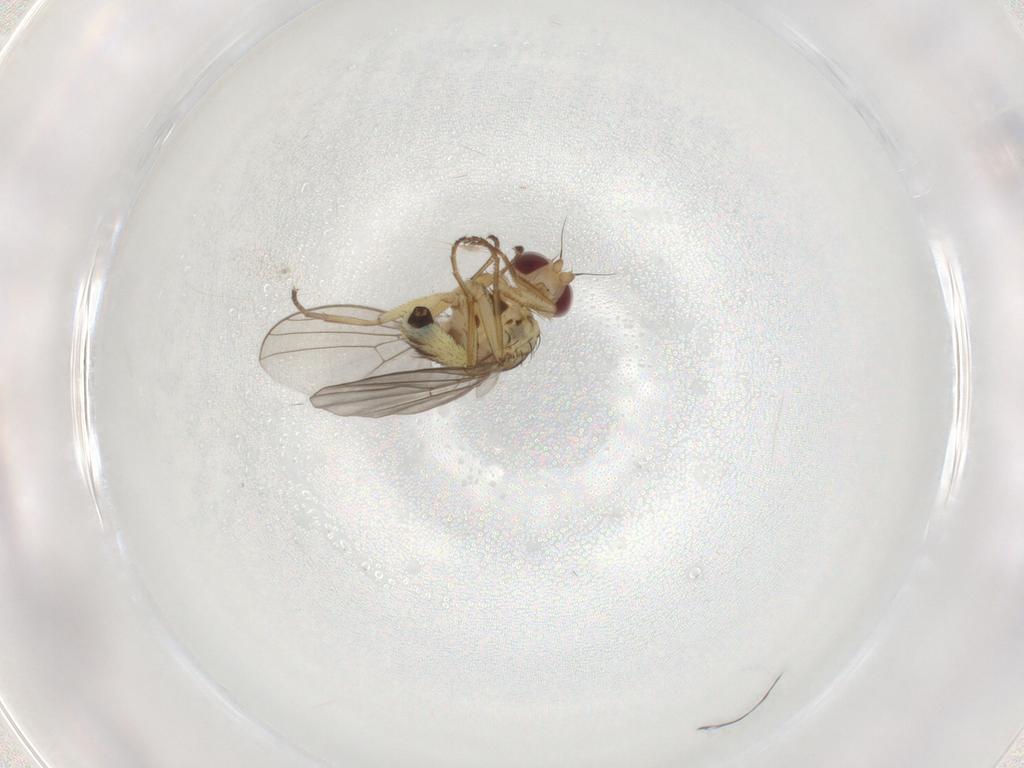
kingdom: Animalia
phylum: Arthropoda
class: Insecta
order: Diptera
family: Agromyzidae
